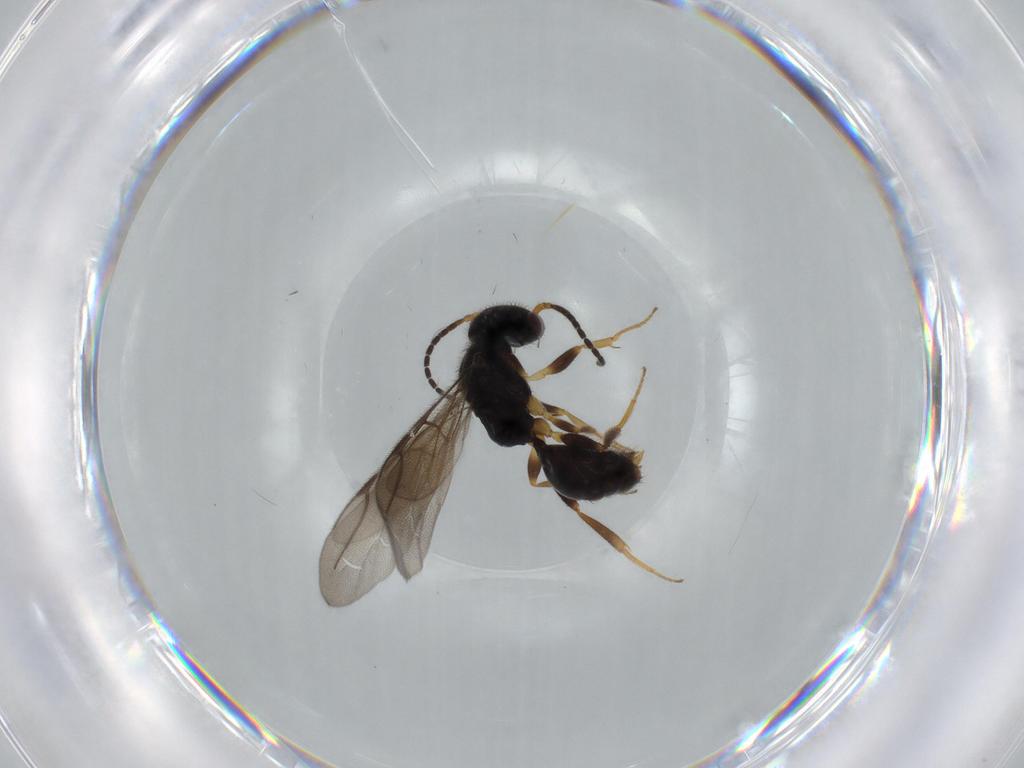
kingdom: Animalia
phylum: Arthropoda
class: Insecta
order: Hymenoptera
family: Bethylidae
